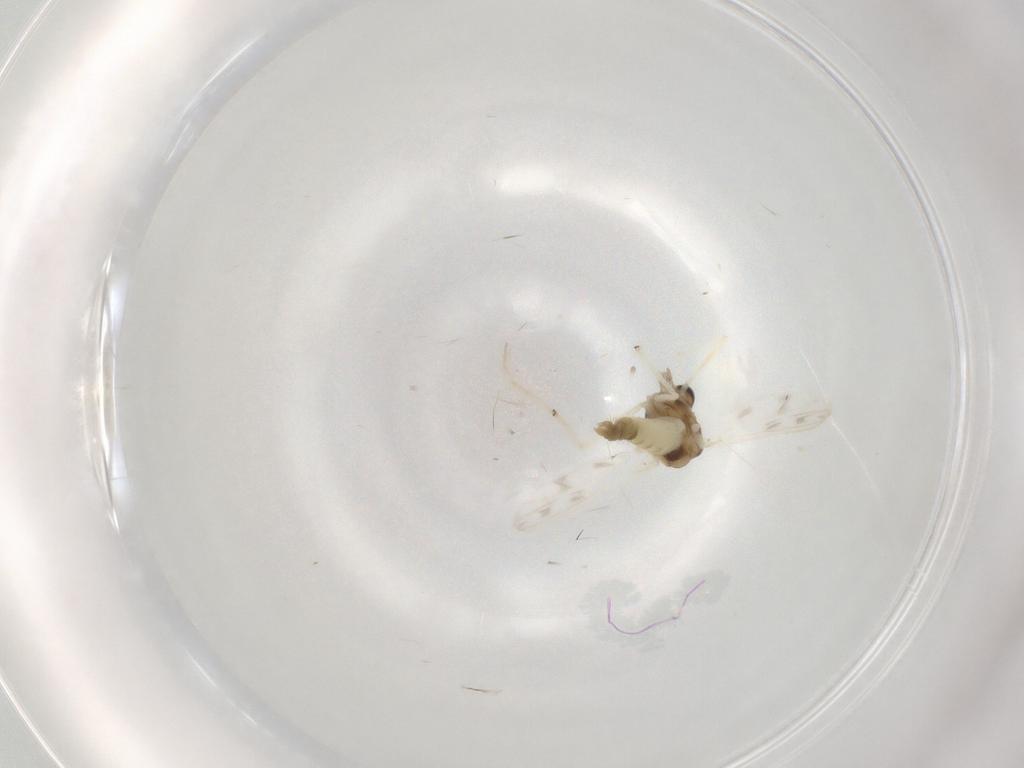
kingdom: Animalia
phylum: Arthropoda
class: Insecta
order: Diptera
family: Chironomidae
